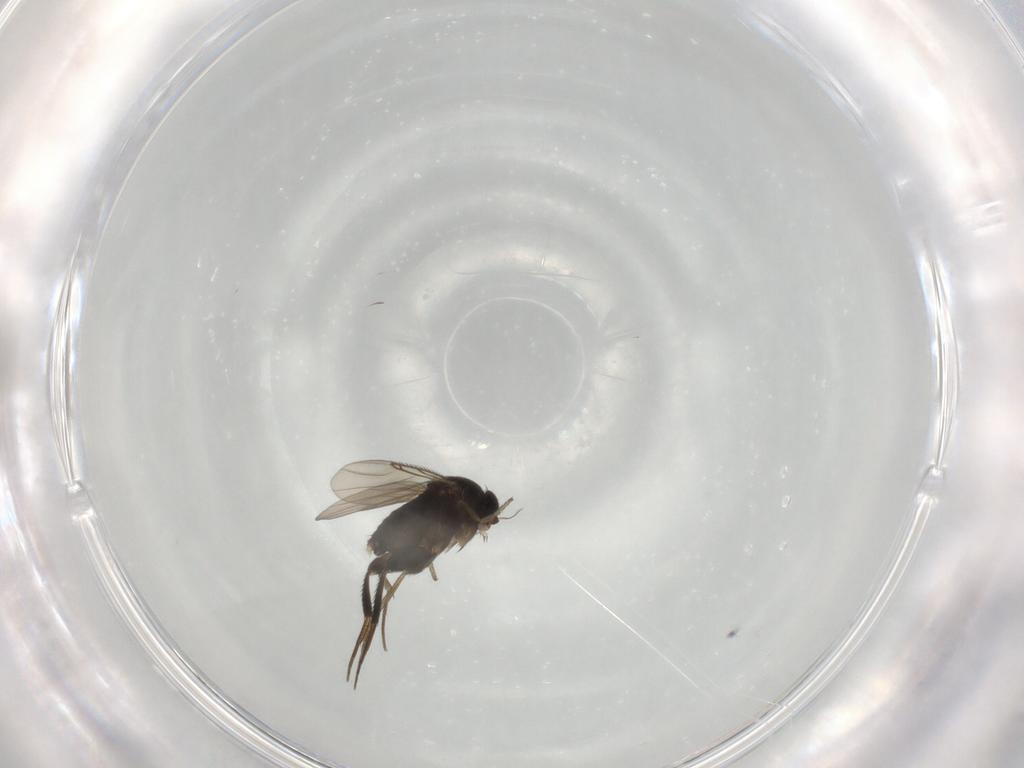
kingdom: Animalia
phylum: Arthropoda
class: Insecta
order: Diptera
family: Phoridae
